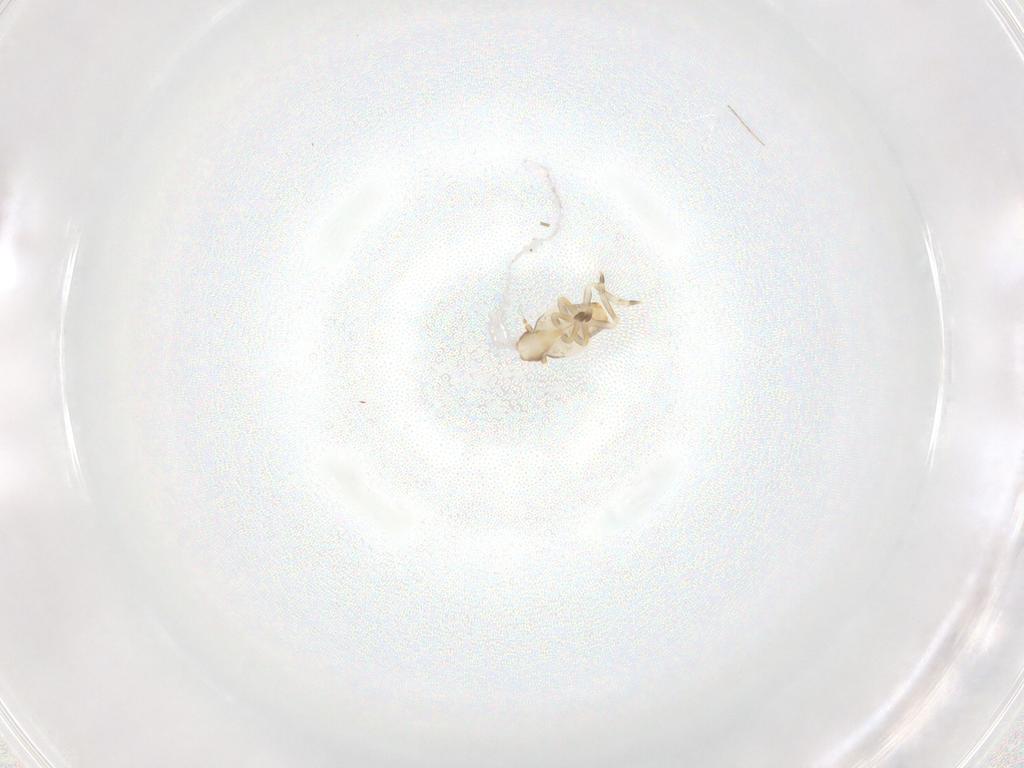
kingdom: Animalia
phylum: Arthropoda
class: Insecta
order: Hemiptera
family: Flatidae
